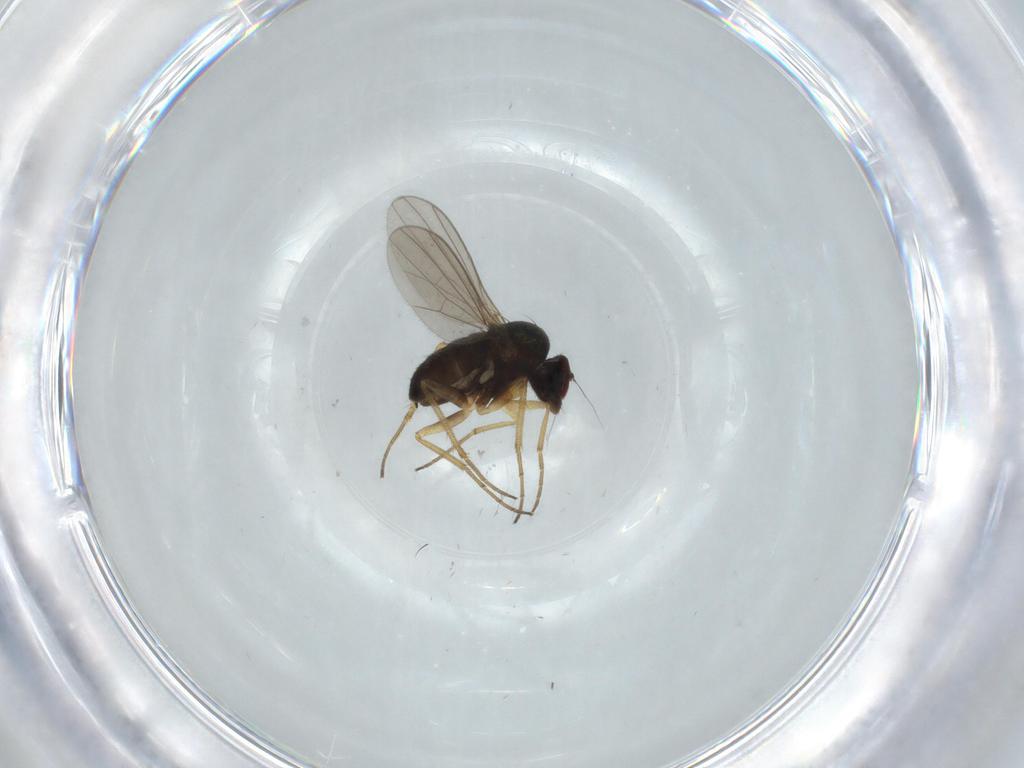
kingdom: Animalia
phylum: Arthropoda
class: Insecta
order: Diptera
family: Dolichopodidae
